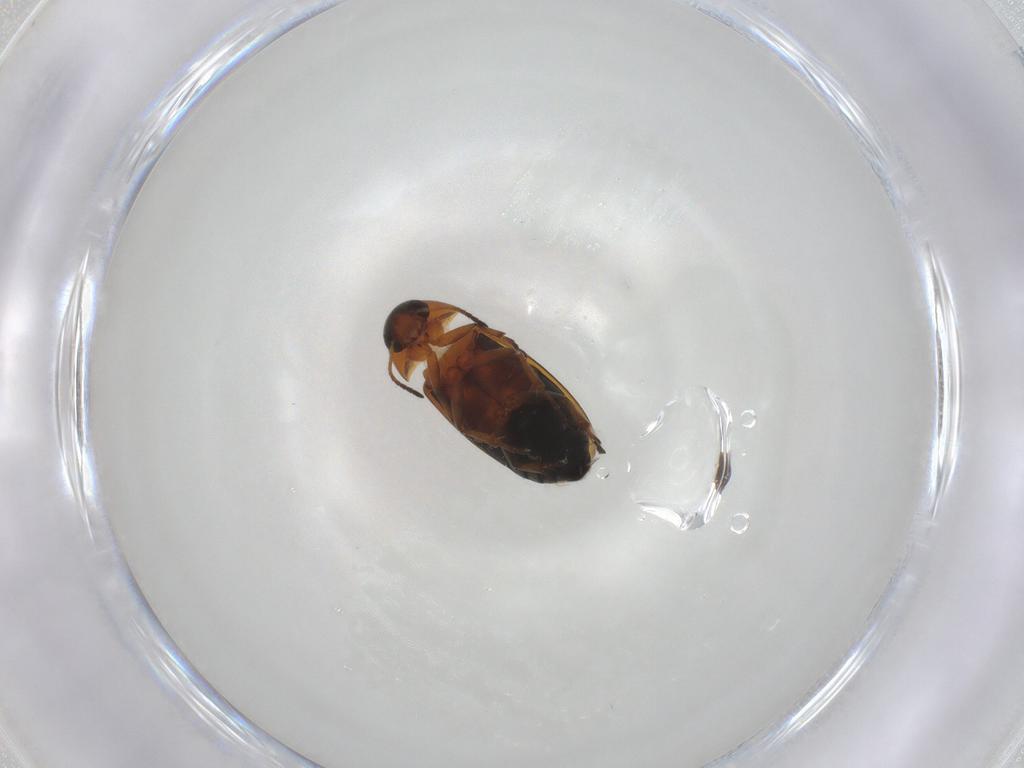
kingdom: Animalia
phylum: Arthropoda
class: Insecta
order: Coleoptera
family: Scraptiidae
